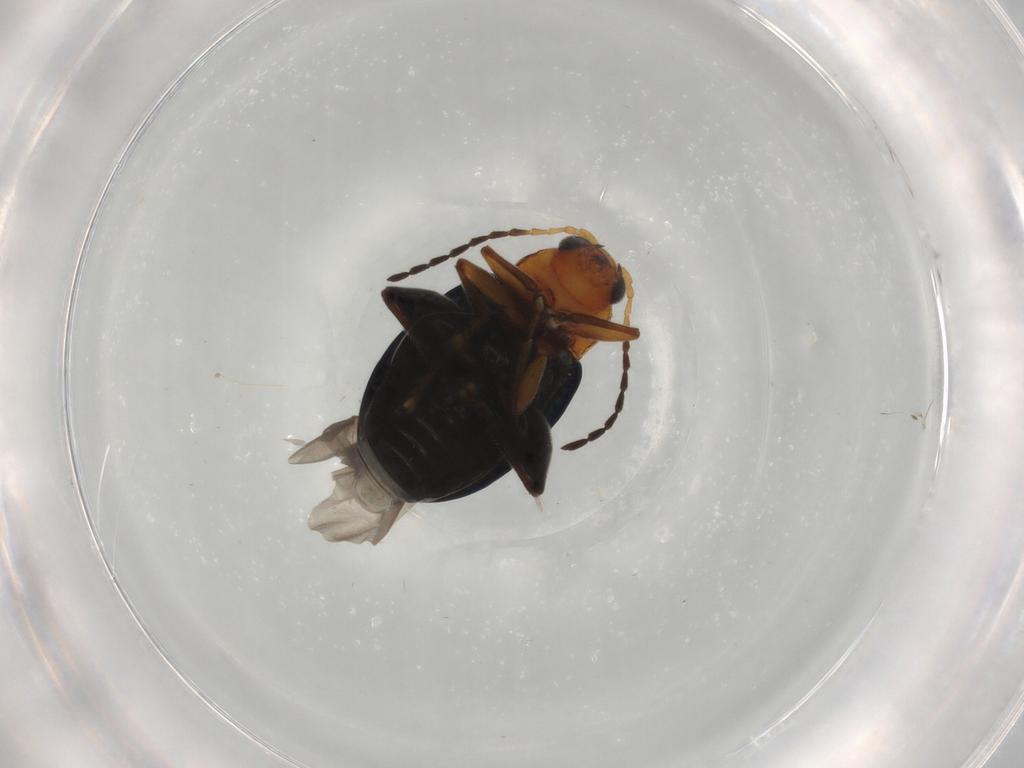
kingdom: Animalia
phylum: Arthropoda
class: Insecta
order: Coleoptera
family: Chrysomelidae
